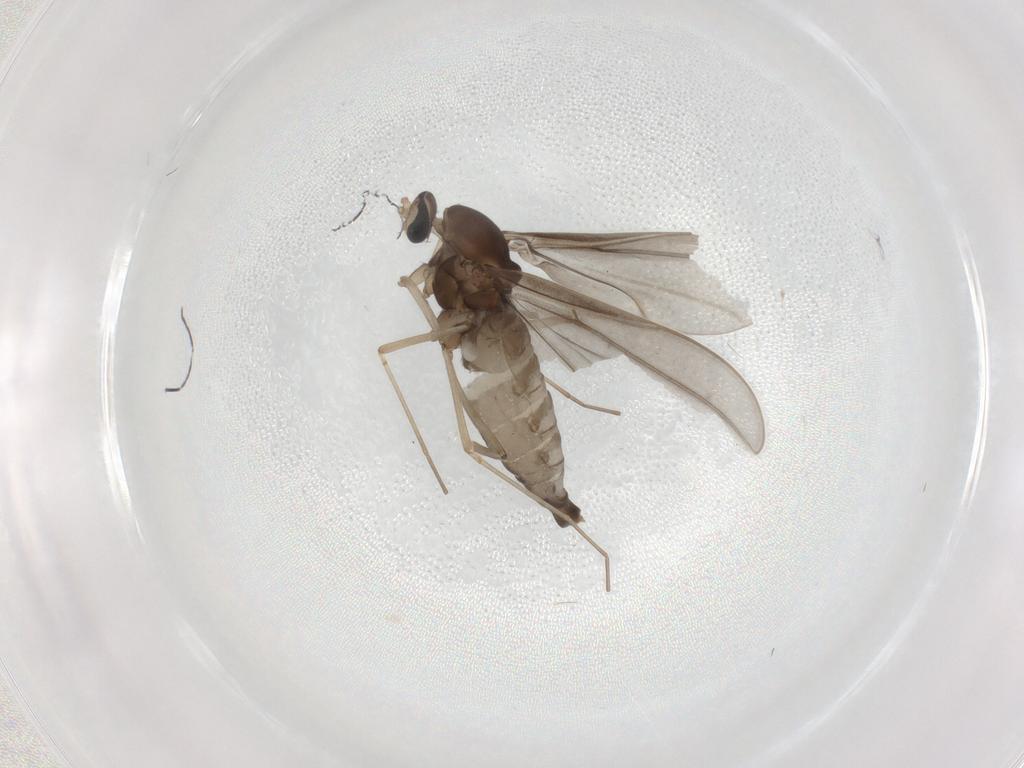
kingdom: Animalia
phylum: Arthropoda
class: Insecta
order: Diptera
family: Cecidomyiidae
